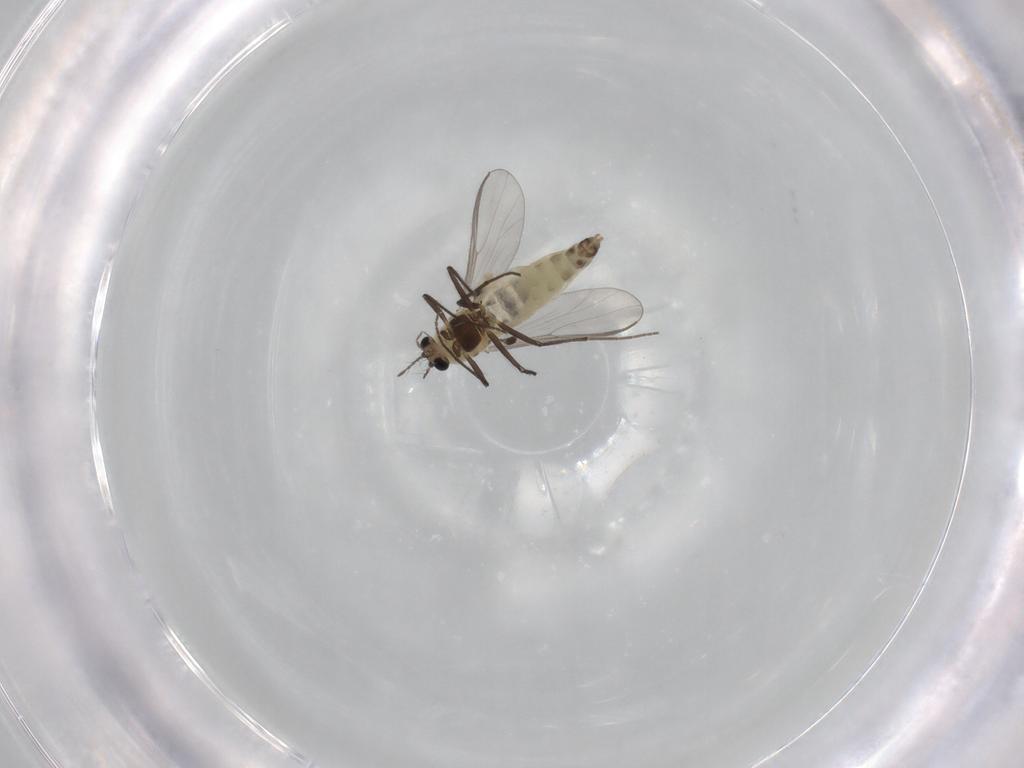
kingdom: Animalia
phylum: Arthropoda
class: Insecta
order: Diptera
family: Chironomidae
